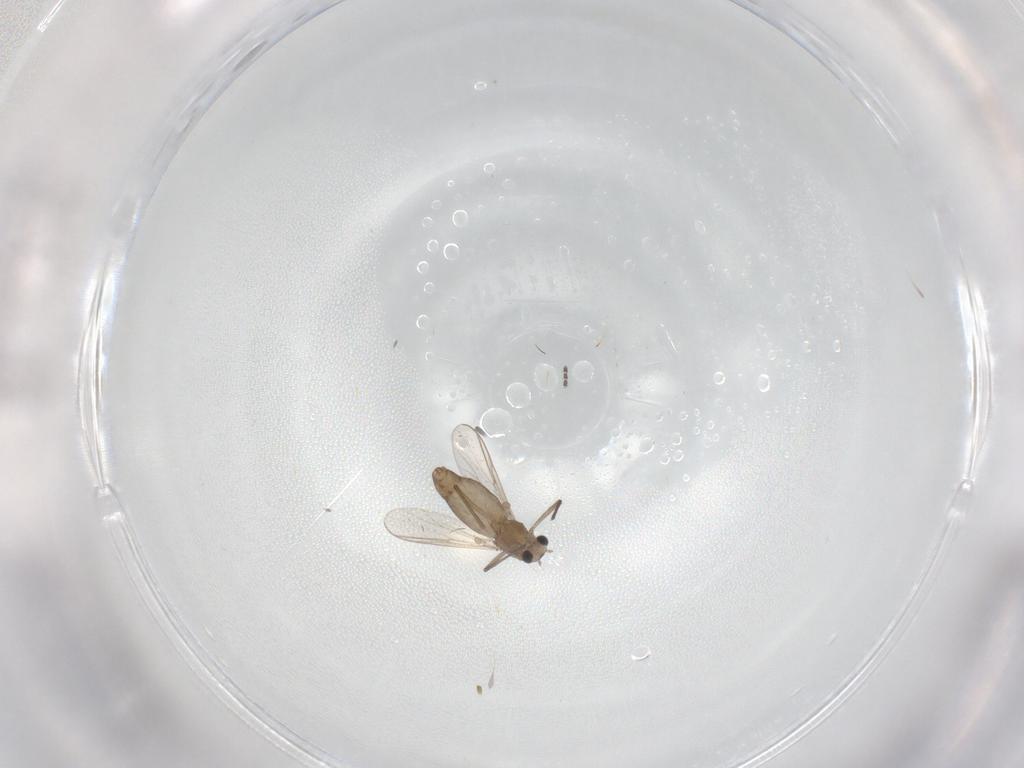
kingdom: Animalia
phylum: Arthropoda
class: Insecta
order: Diptera
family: Chironomidae
